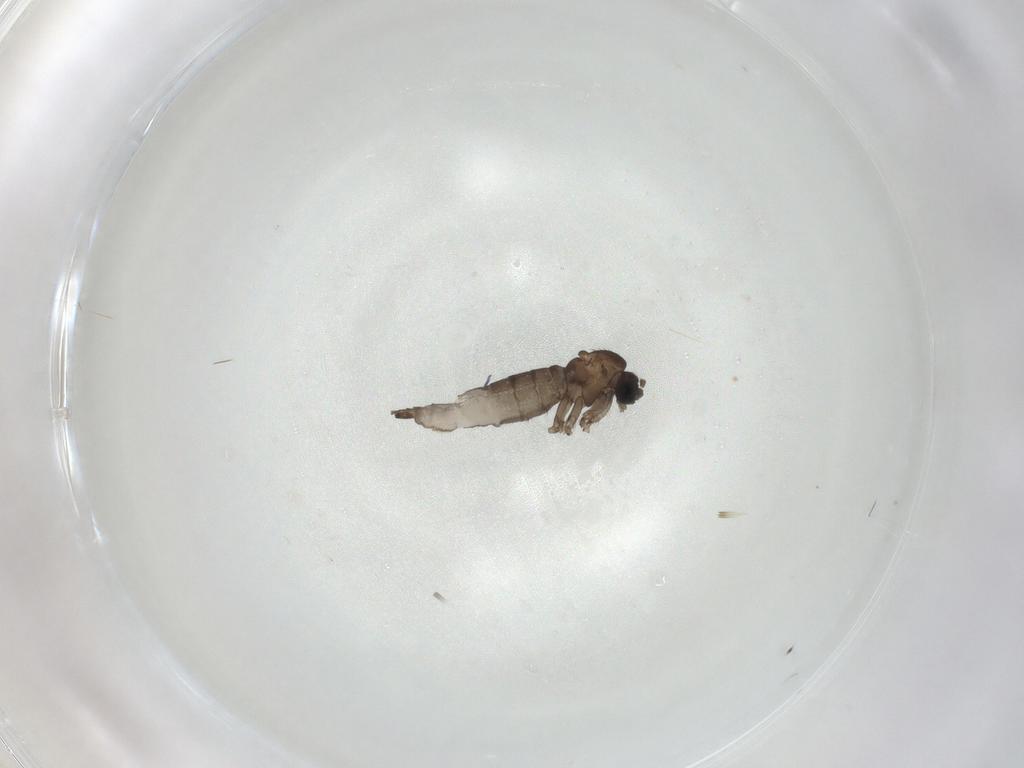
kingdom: Animalia
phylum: Arthropoda
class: Insecta
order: Diptera
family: Sciaridae
